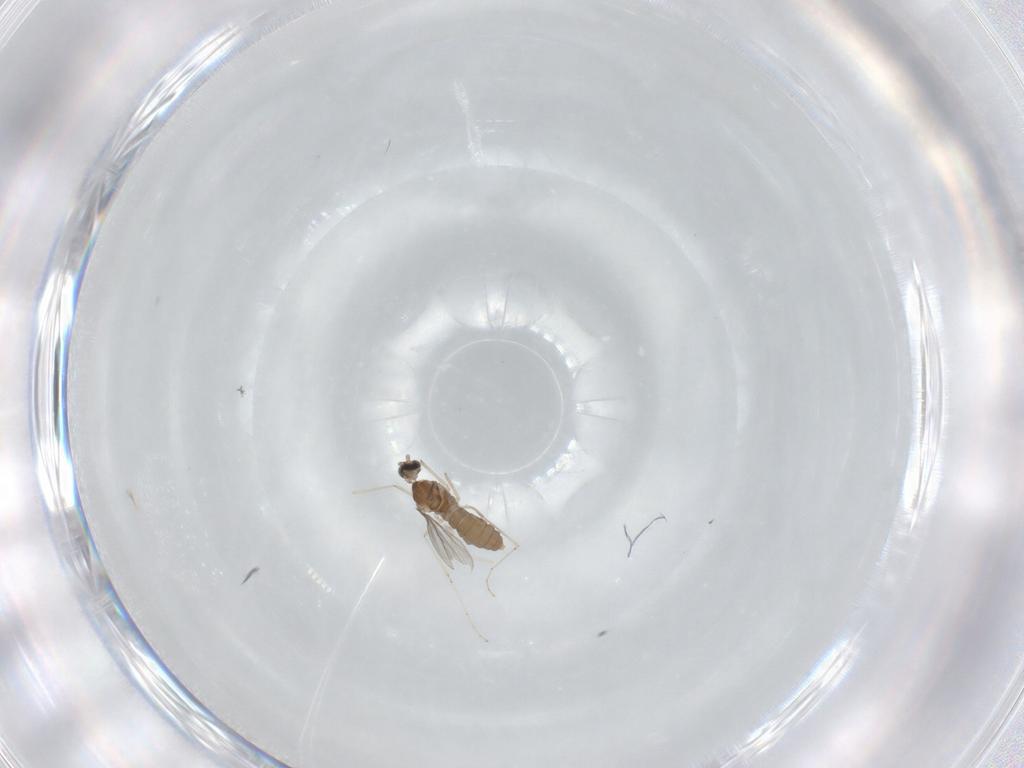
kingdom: Animalia
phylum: Arthropoda
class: Insecta
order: Diptera
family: Cecidomyiidae
